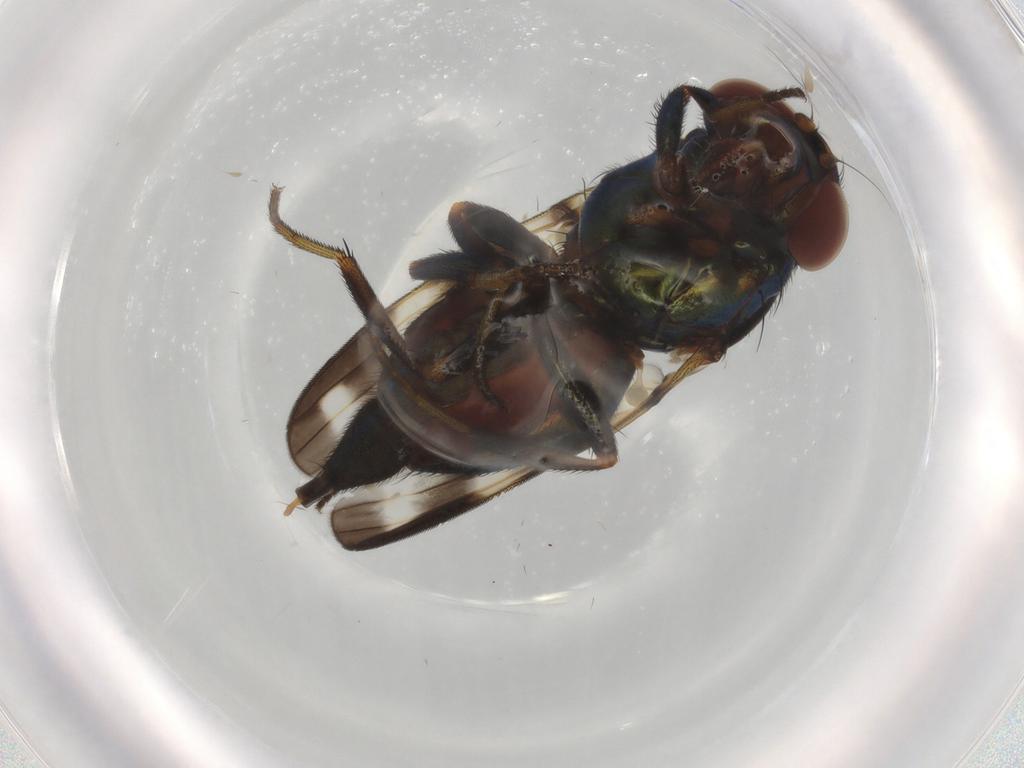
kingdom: Animalia
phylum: Arthropoda
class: Insecta
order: Diptera
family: Ulidiidae
